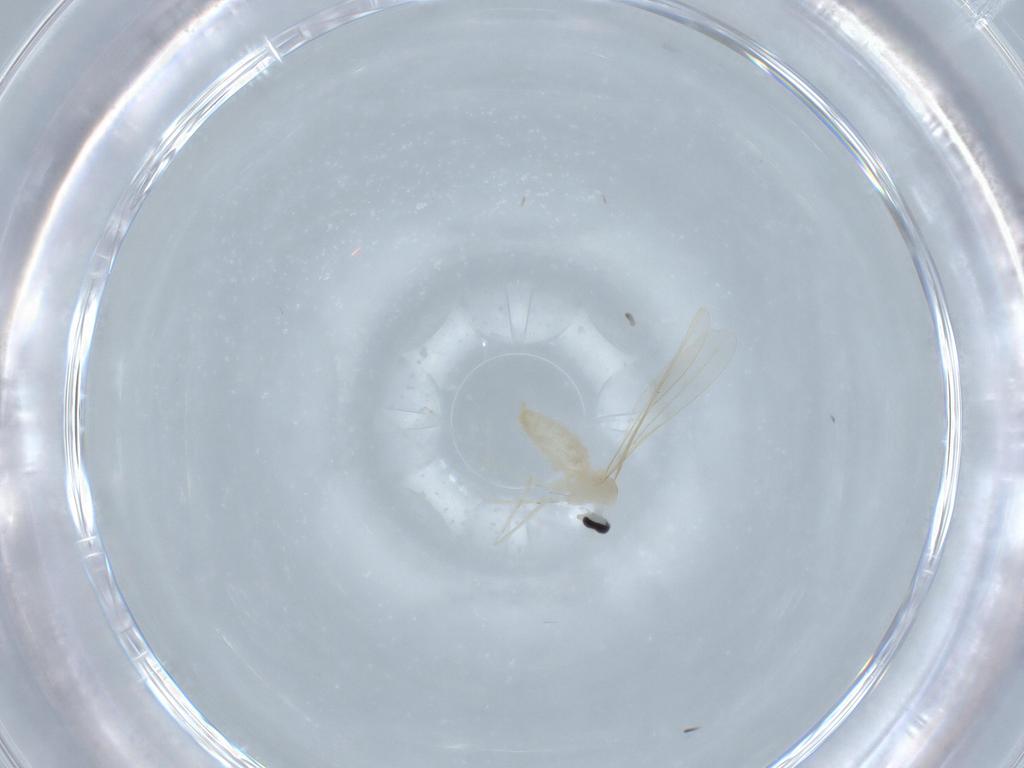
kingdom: Animalia
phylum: Arthropoda
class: Insecta
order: Diptera
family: Cecidomyiidae
